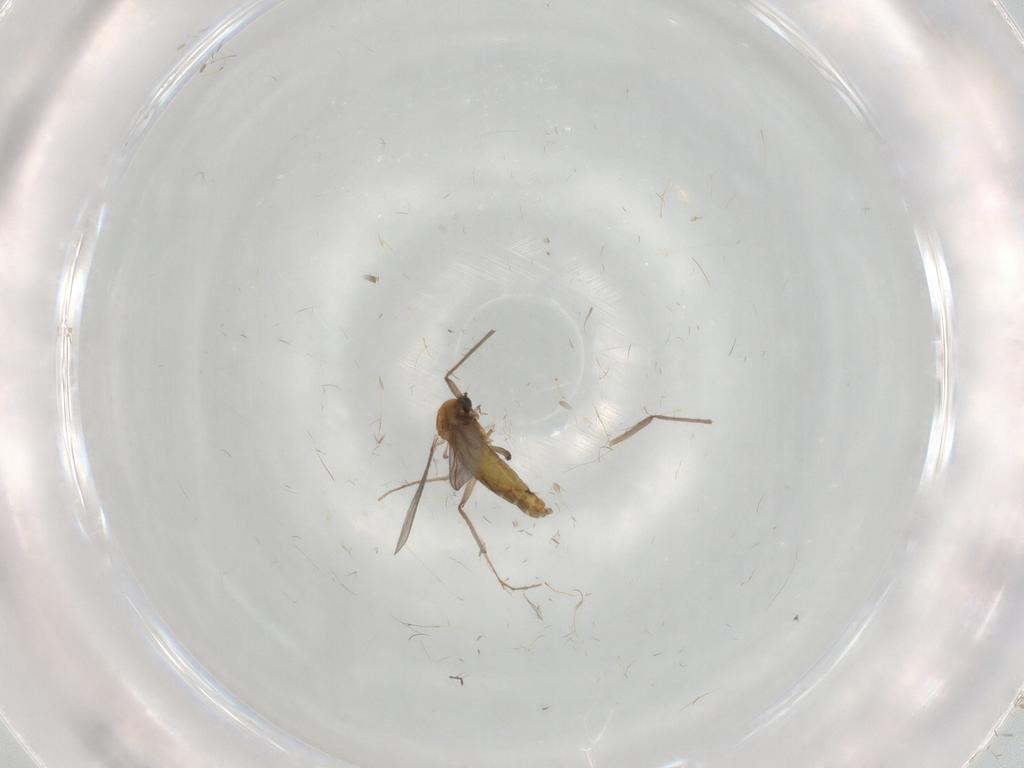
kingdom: Animalia
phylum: Arthropoda
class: Insecta
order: Diptera
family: Chironomidae
